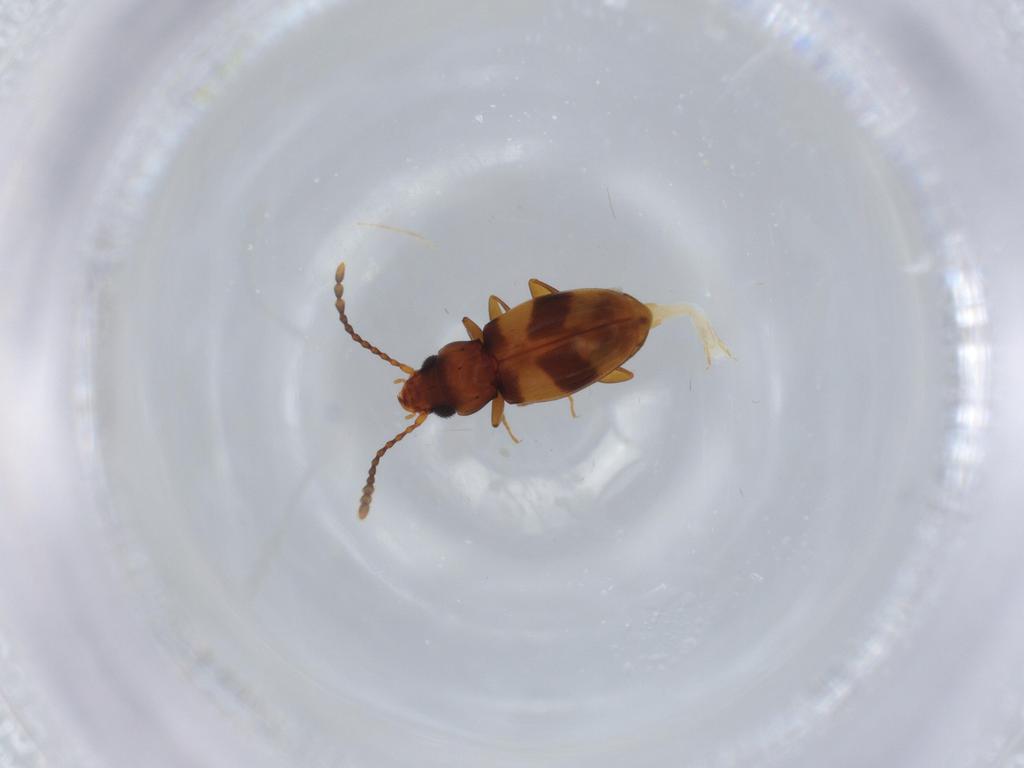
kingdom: Animalia
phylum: Arthropoda
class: Insecta
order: Coleoptera
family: Laemophloeidae
